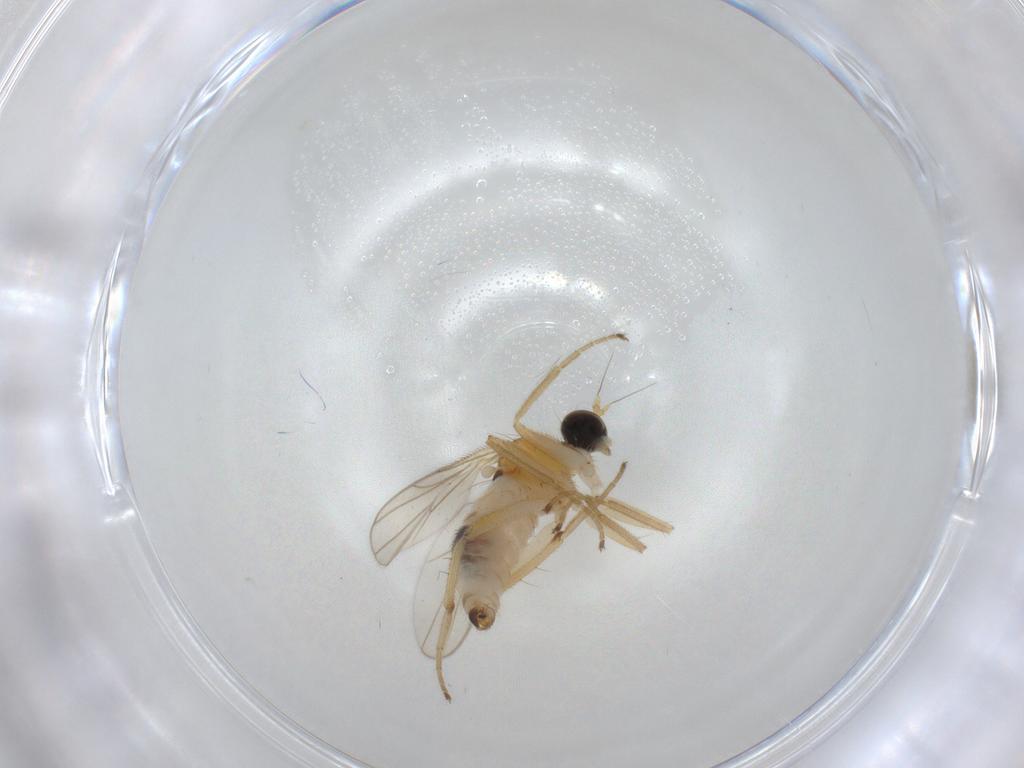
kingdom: Animalia
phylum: Arthropoda
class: Insecta
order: Diptera
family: Hybotidae
